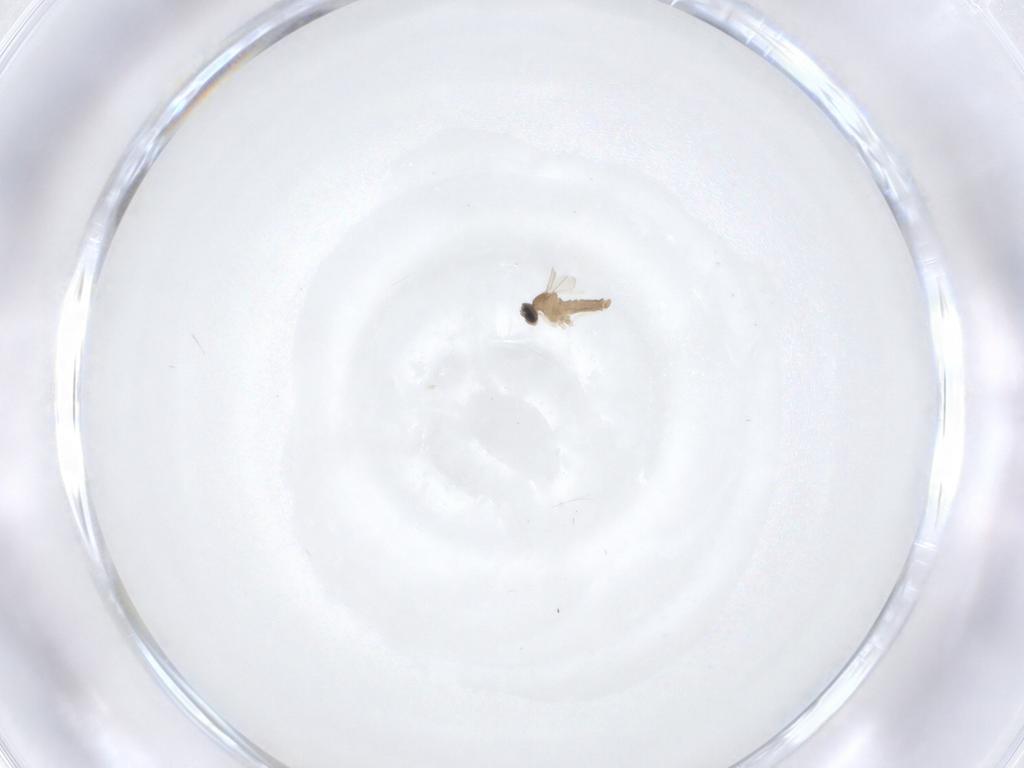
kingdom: Animalia
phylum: Arthropoda
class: Insecta
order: Diptera
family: Cecidomyiidae
